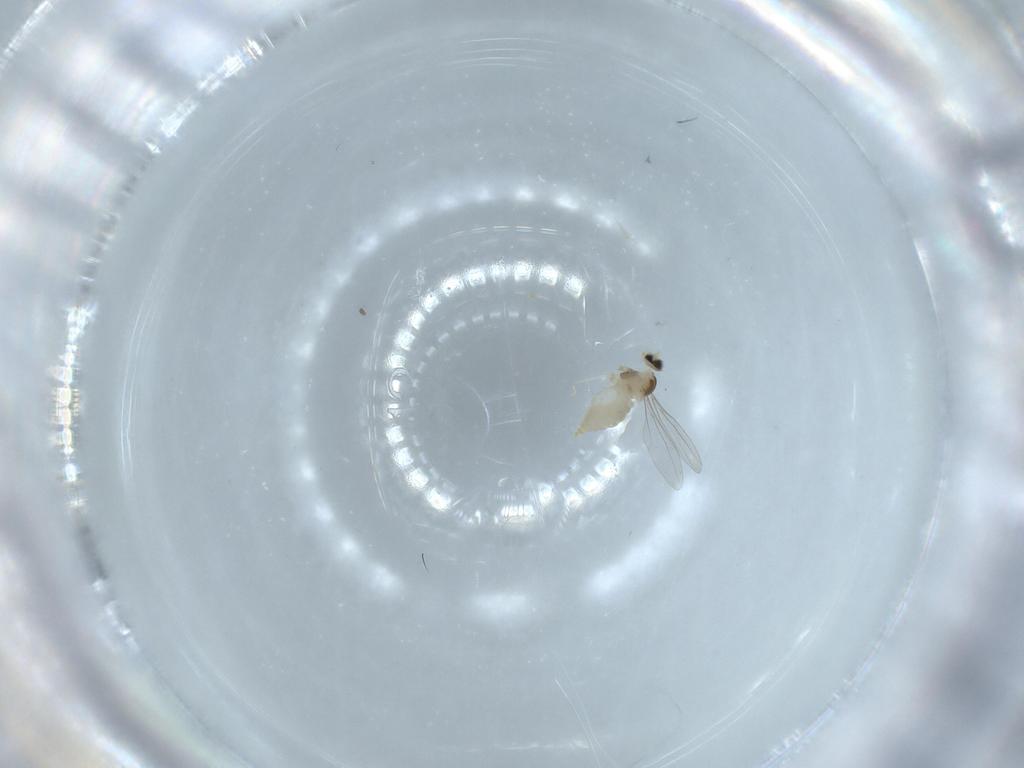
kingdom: Animalia
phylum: Arthropoda
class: Insecta
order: Diptera
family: Cecidomyiidae
